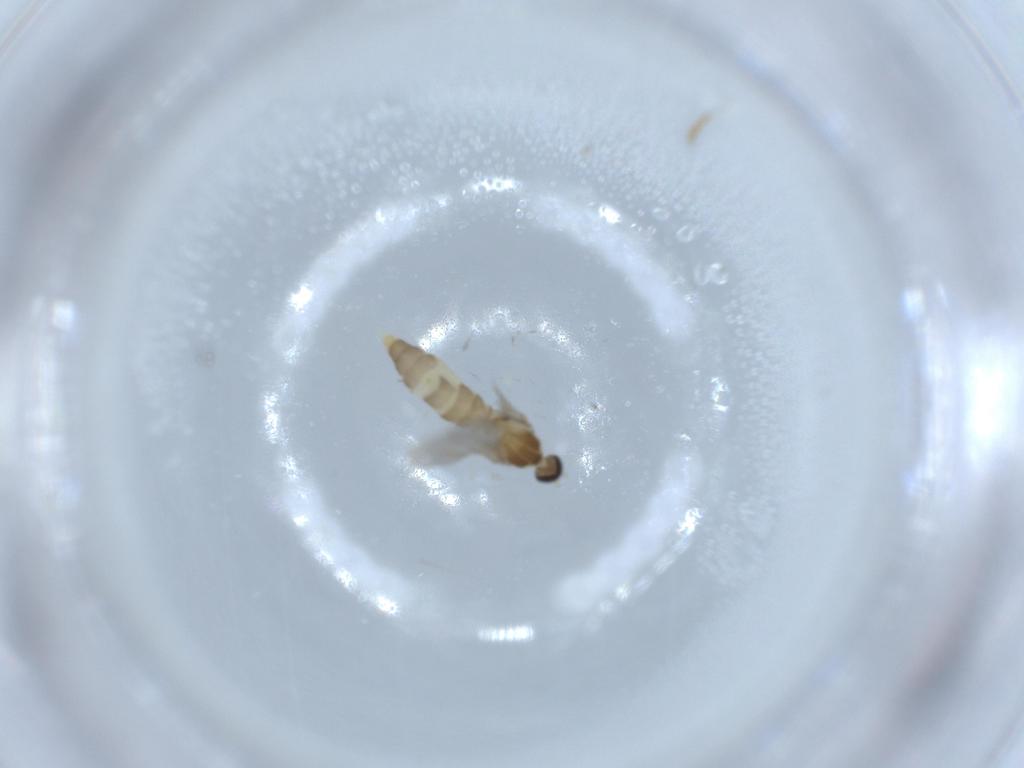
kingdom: Animalia
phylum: Arthropoda
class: Insecta
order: Diptera
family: Cecidomyiidae
